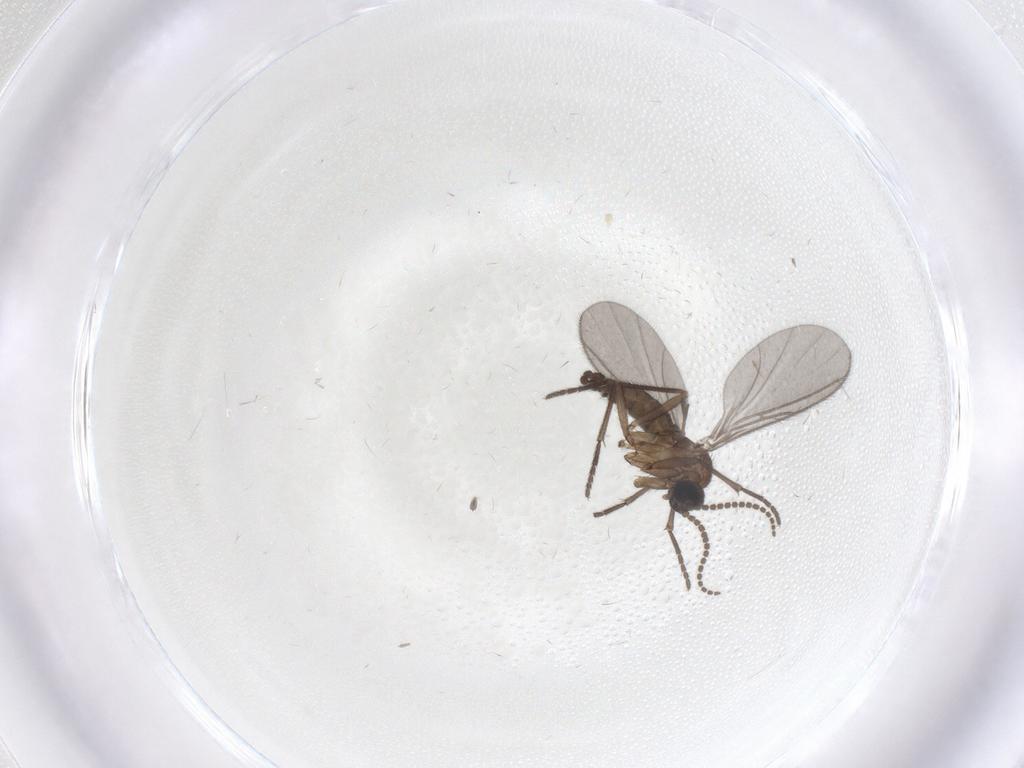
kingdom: Animalia
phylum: Arthropoda
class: Insecta
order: Diptera
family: Sciaridae
